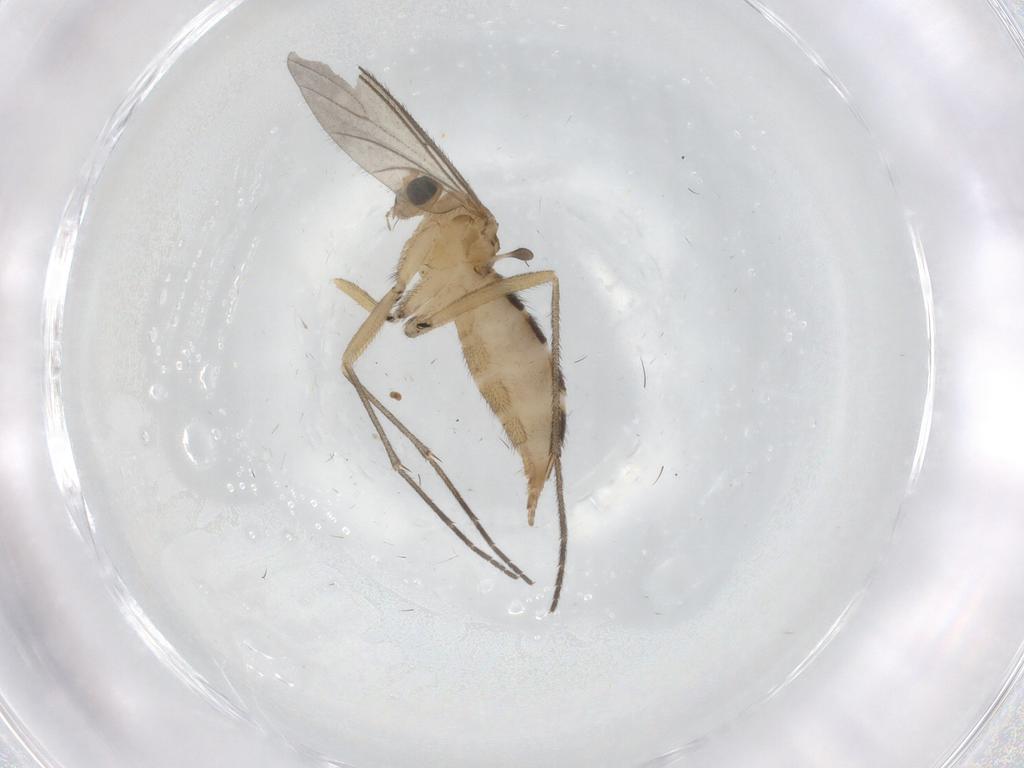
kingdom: Animalia
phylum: Arthropoda
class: Insecta
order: Diptera
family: Sciaridae
